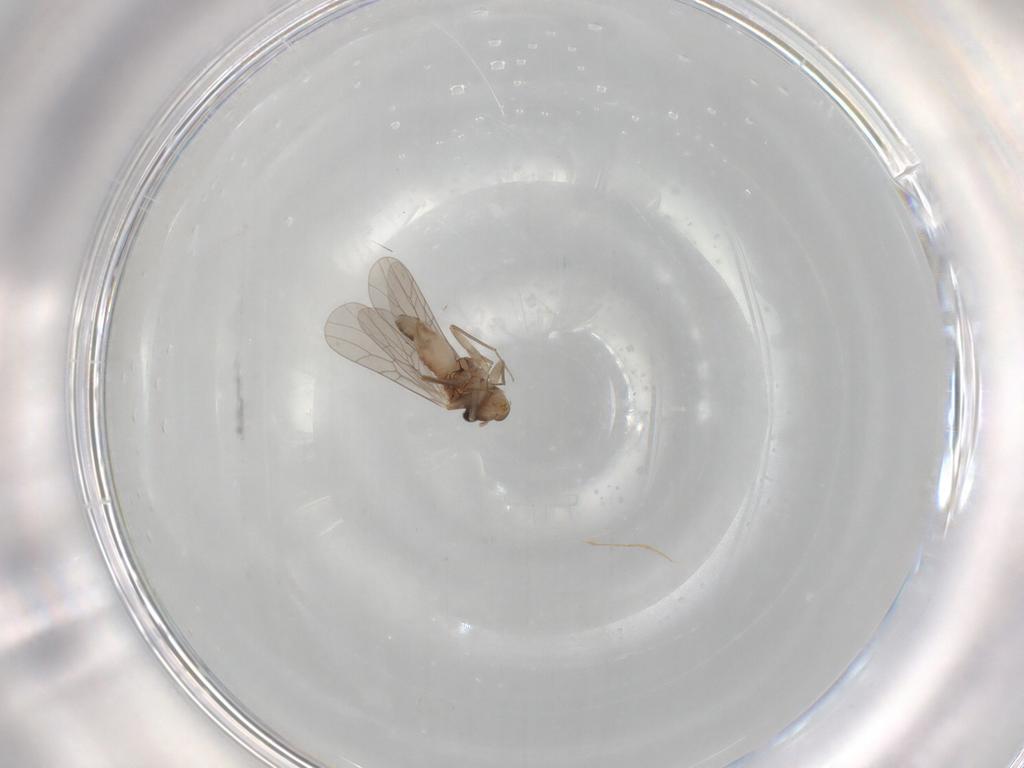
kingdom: Animalia
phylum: Arthropoda
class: Insecta
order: Psocodea
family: Lepidopsocidae
